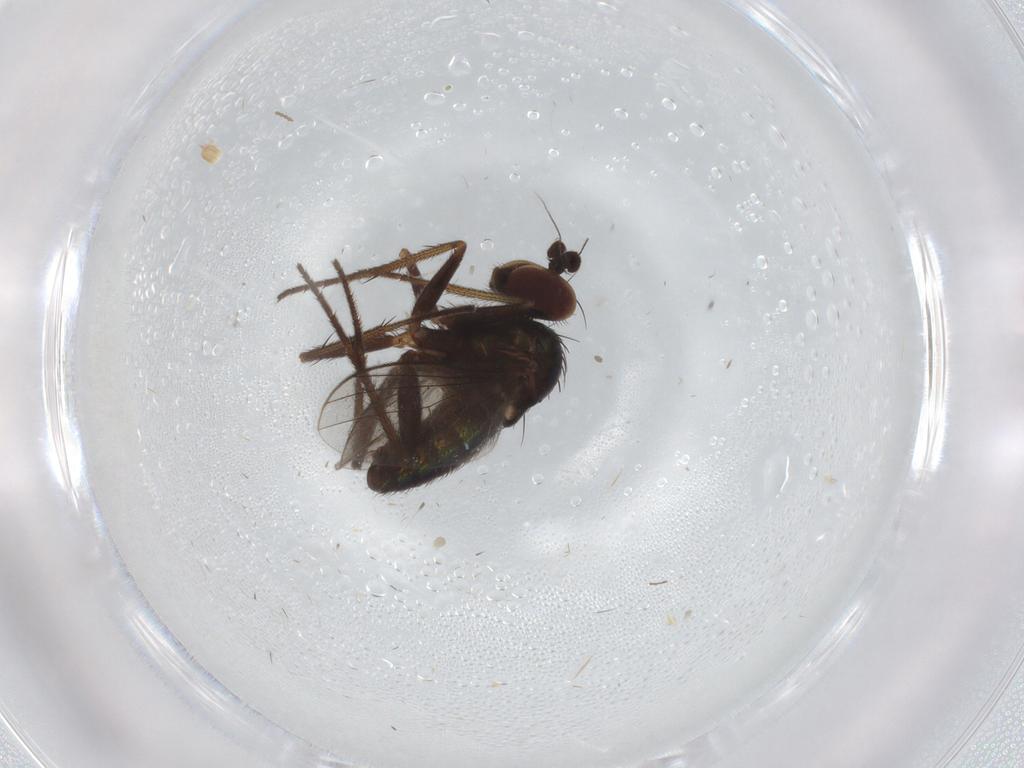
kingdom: Animalia
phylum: Arthropoda
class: Insecta
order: Diptera
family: Dolichopodidae
